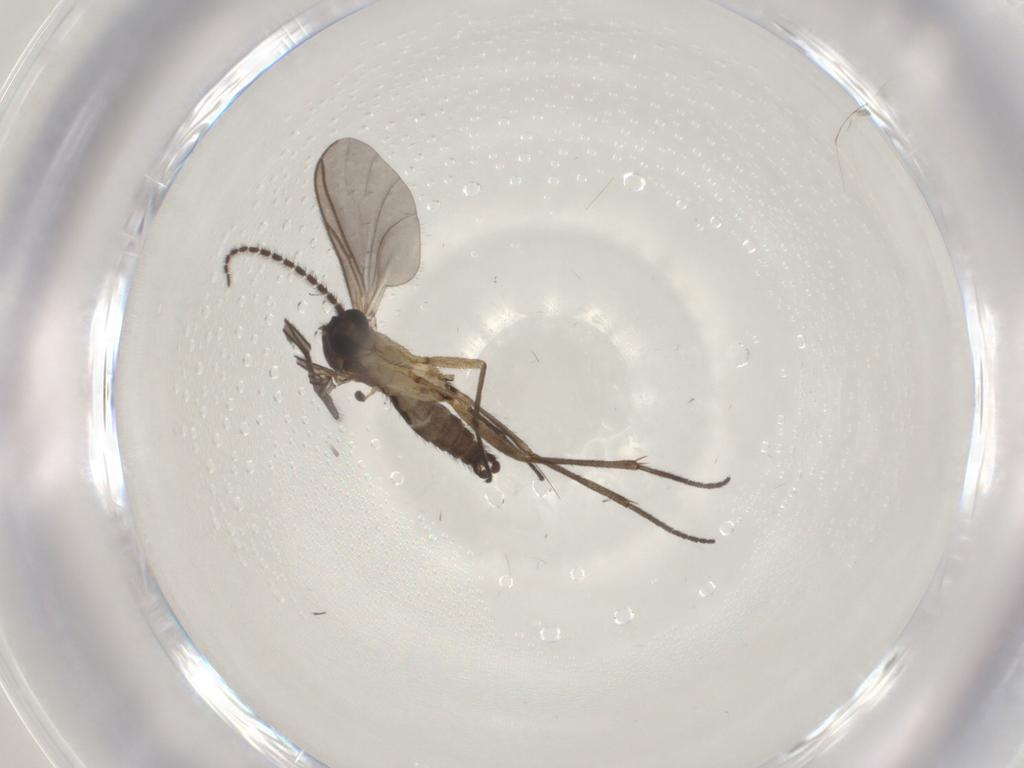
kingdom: Animalia
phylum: Arthropoda
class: Insecta
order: Diptera
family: Sciaridae
